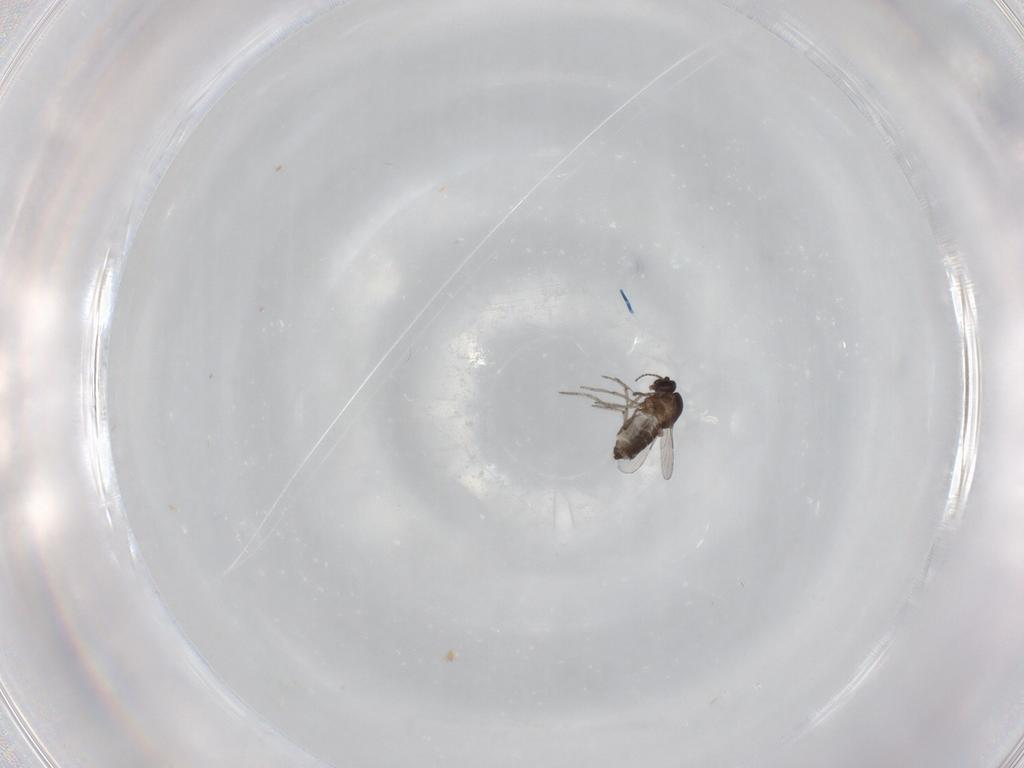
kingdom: Animalia
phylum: Arthropoda
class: Insecta
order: Diptera
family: Ceratopogonidae
